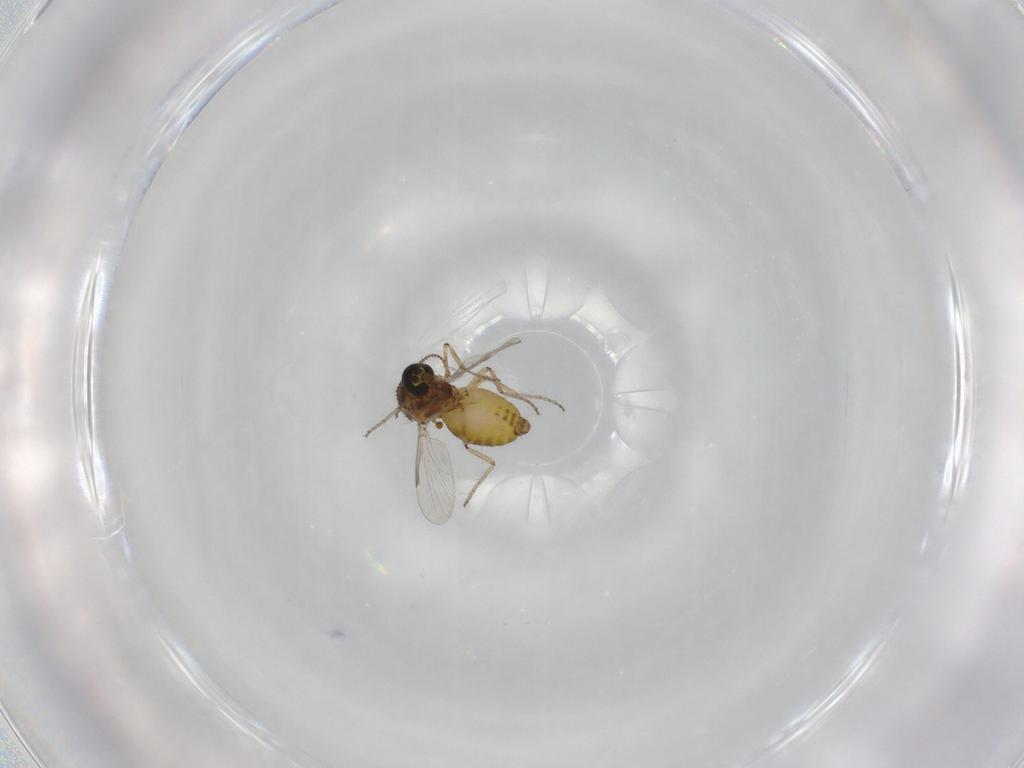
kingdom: Animalia
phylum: Arthropoda
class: Insecta
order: Diptera
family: Ceratopogonidae
